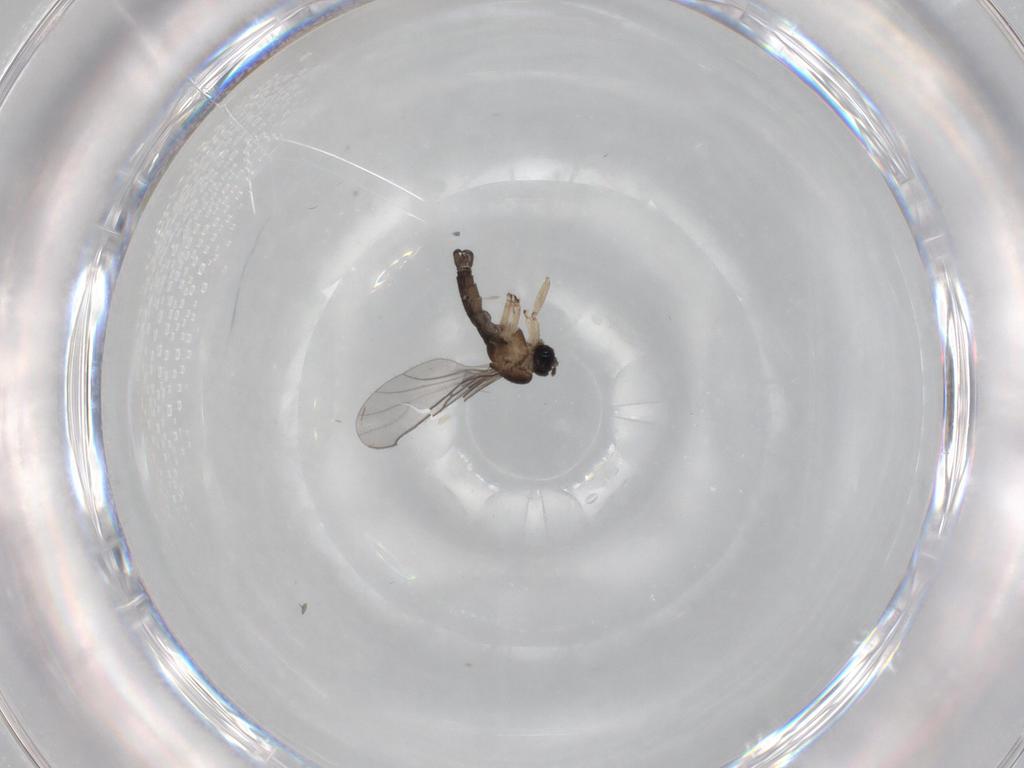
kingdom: Animalia
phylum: Arthropoda
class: Insecta
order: Diptera
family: Sciaridae
